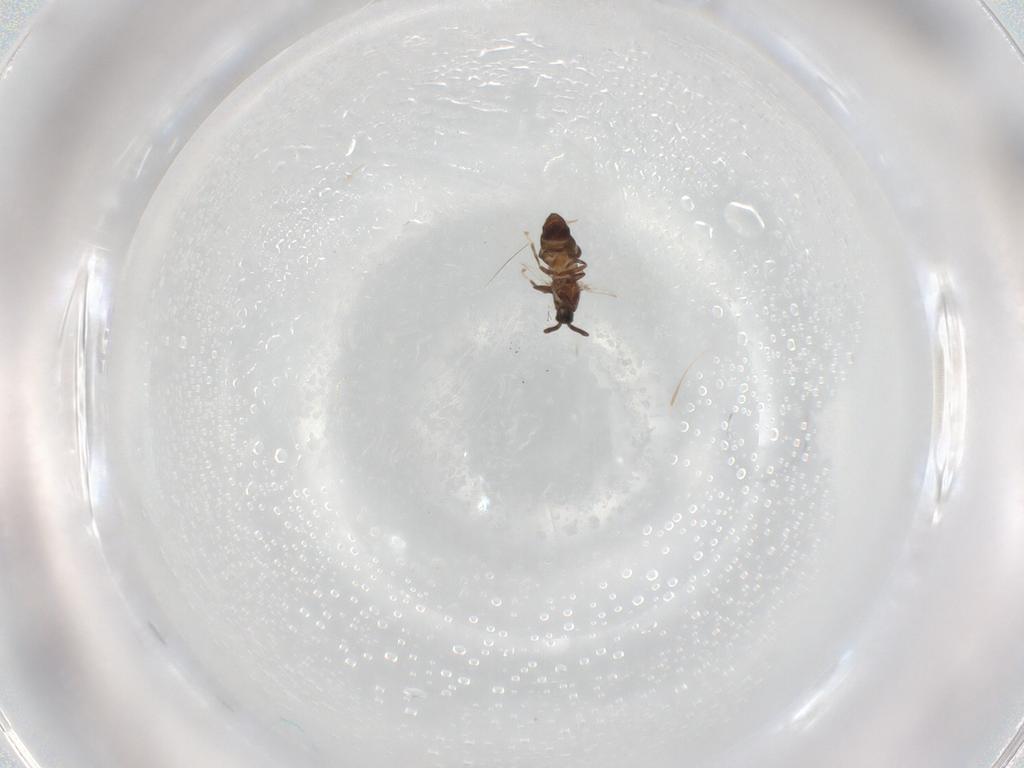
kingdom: Animalia
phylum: Arthropoda
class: Insecta
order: Diptera
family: Scatopsidae
